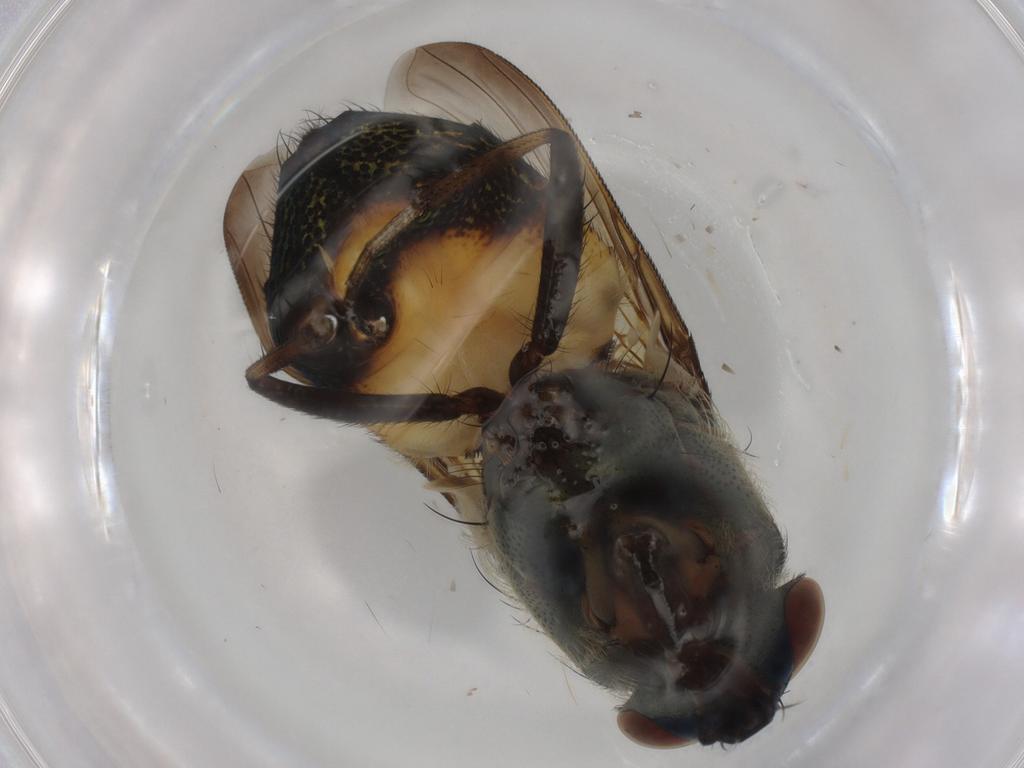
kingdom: Animalia
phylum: Arthropoda
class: Insecta
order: Diptera
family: Calliphoridae
